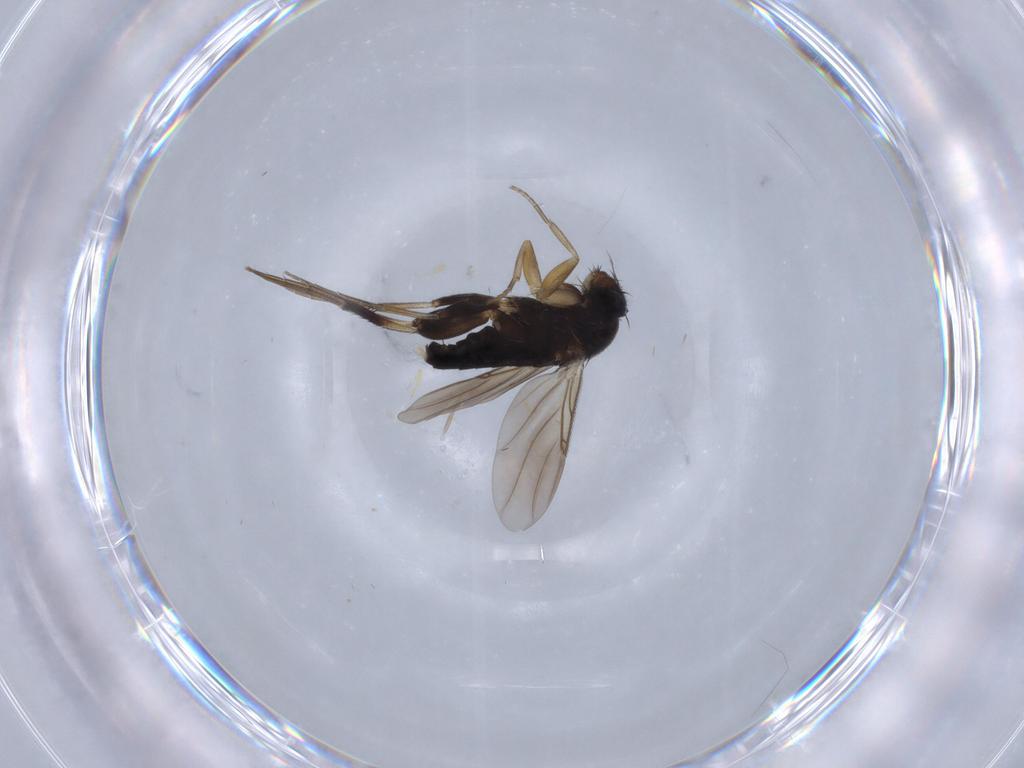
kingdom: Animalia
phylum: Arthropoda
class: Insecta
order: Diptera
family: Phoridae
